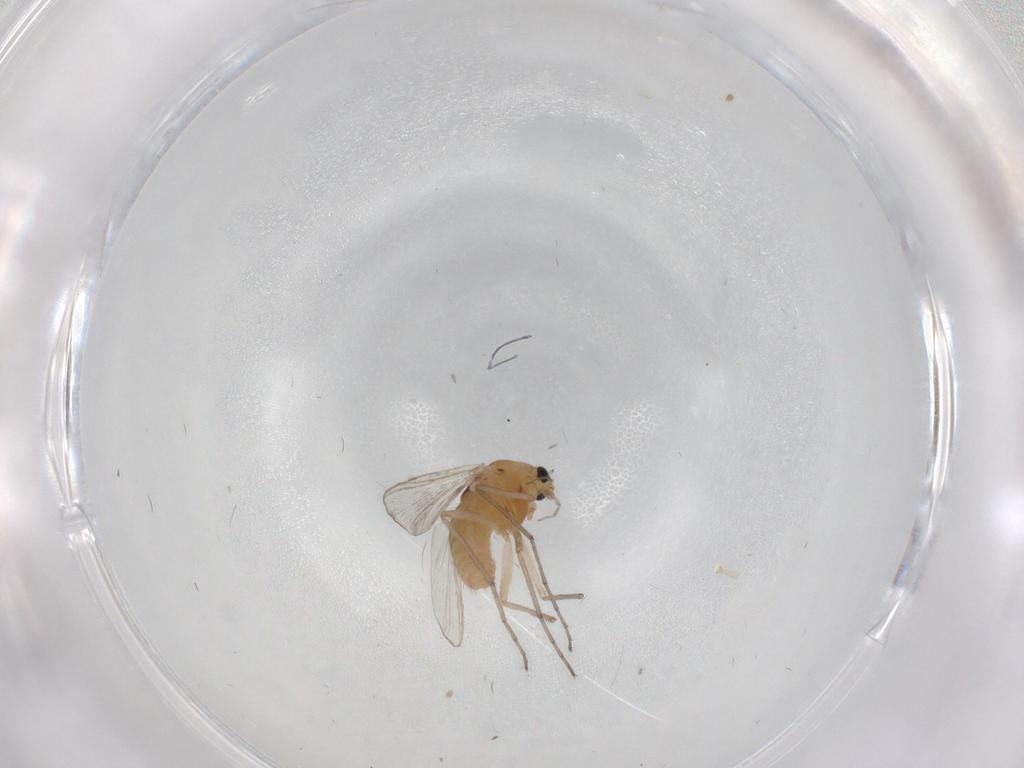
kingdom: Animalia
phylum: Arthropoda
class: Insecta
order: Diptera
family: Phoridae
